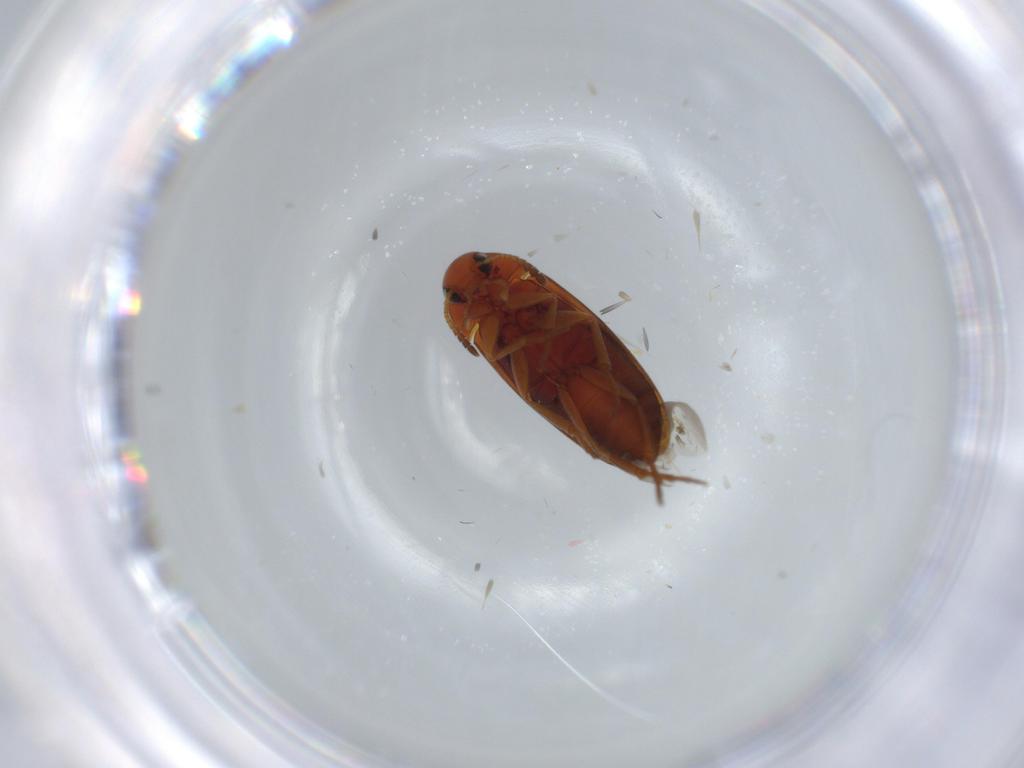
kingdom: Animalia
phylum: Arthropoda
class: Insecta
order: Coleoptera
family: Scraptiidae
